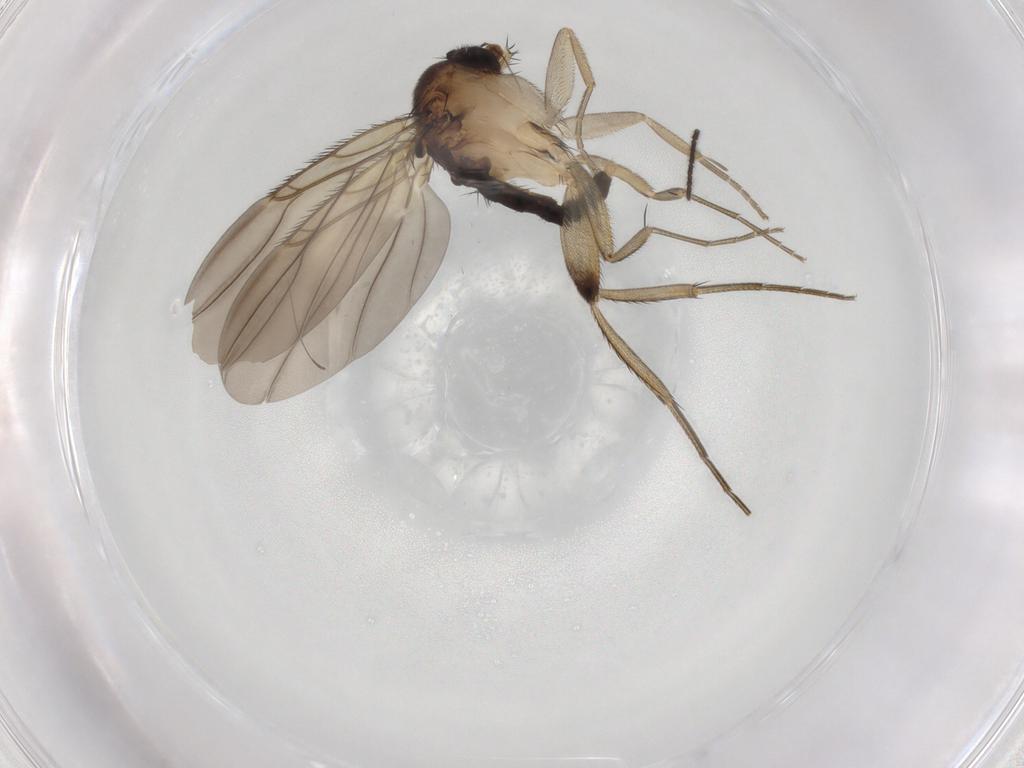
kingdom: Animalia
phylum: Arthropoda
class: Insecta
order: Diptera
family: Phoridae
